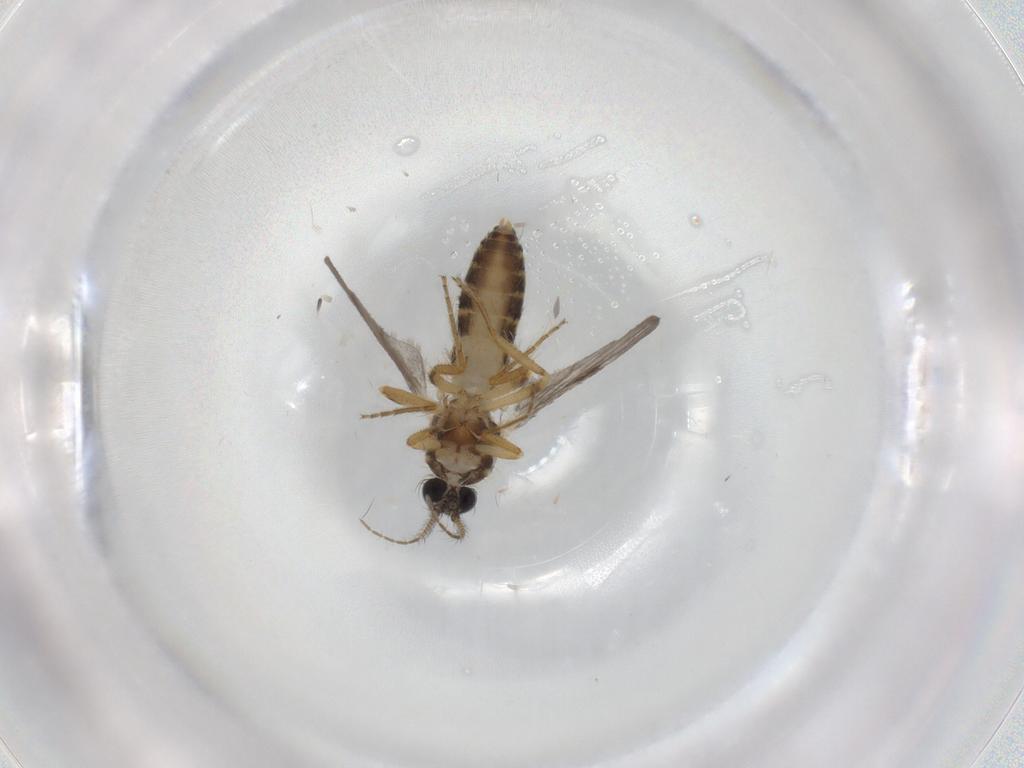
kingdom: Animalia
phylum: Arthropoda
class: Insecta
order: Diptera
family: Ceratopogonidae
